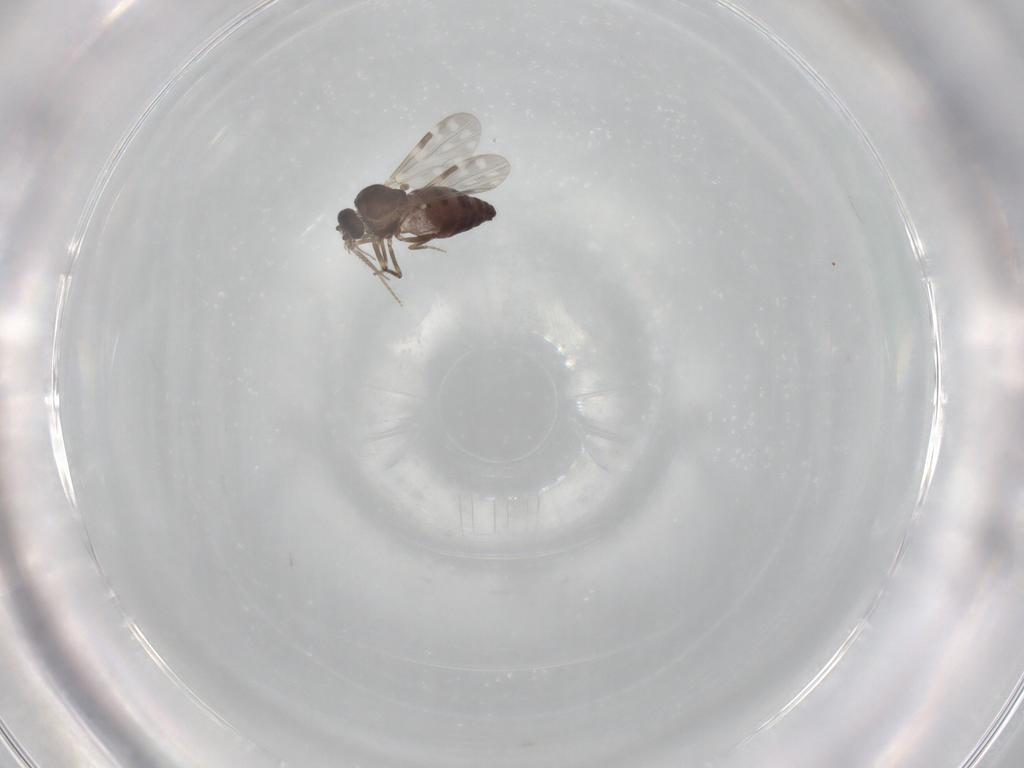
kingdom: Animalia
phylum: Arthropoda
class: Insecta
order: Diptera
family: Ceratopogonidae
